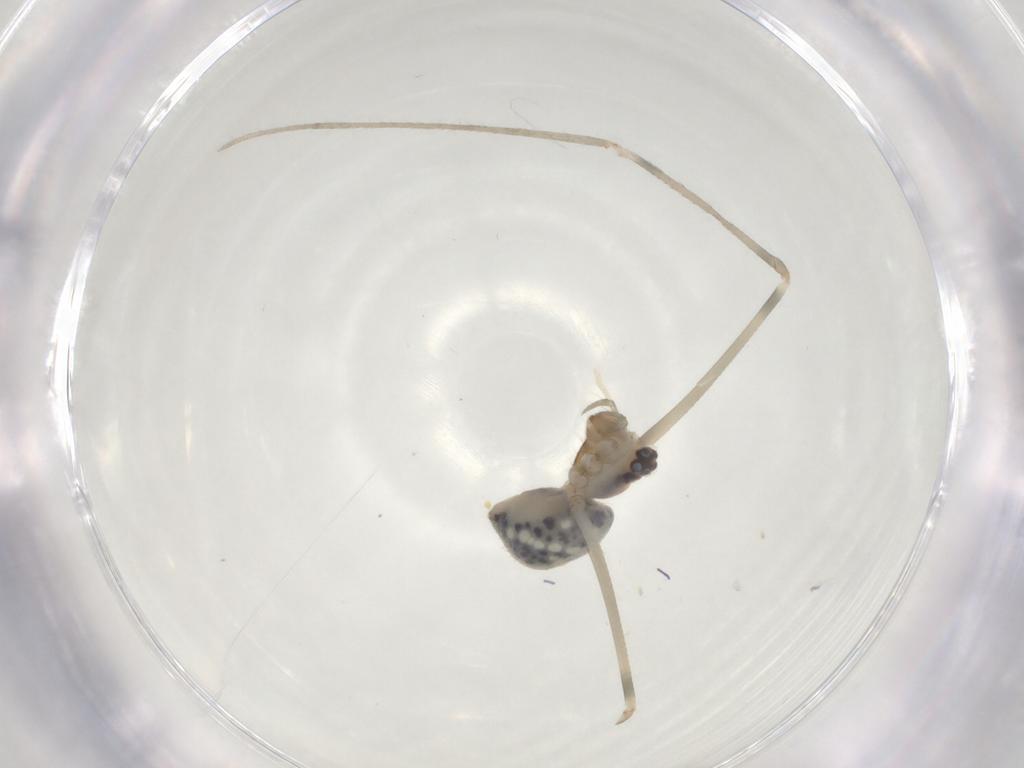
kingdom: Animalia
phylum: Arthropoda
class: Arachnida
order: Araneae
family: Pholcidae
